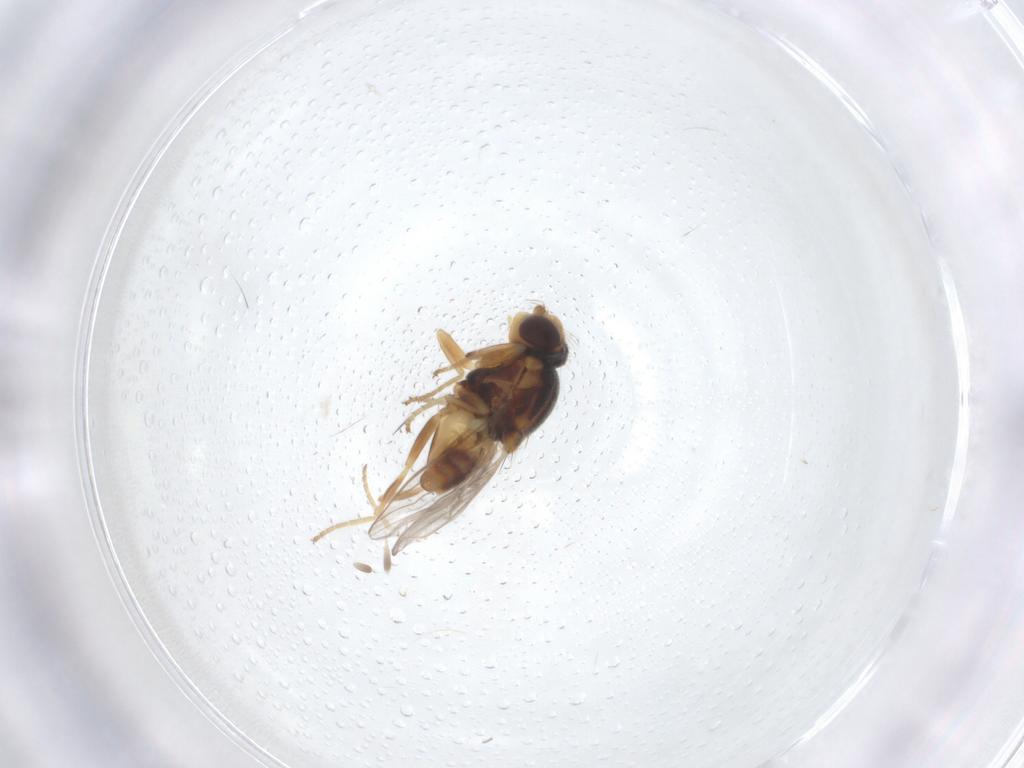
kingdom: Animalia
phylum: Arthropoda
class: Insecta
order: Diptera
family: Chloropidae
